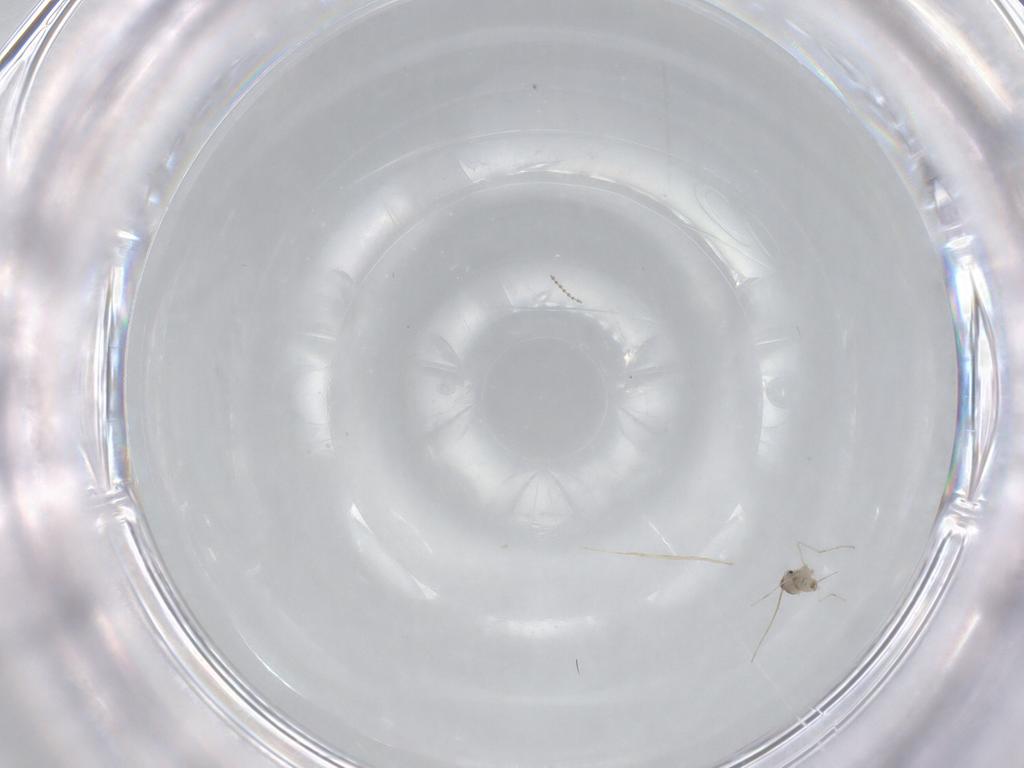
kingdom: Animalia
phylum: Arthropoda
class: Insecta
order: Diptera
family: Cecidomyiidae
